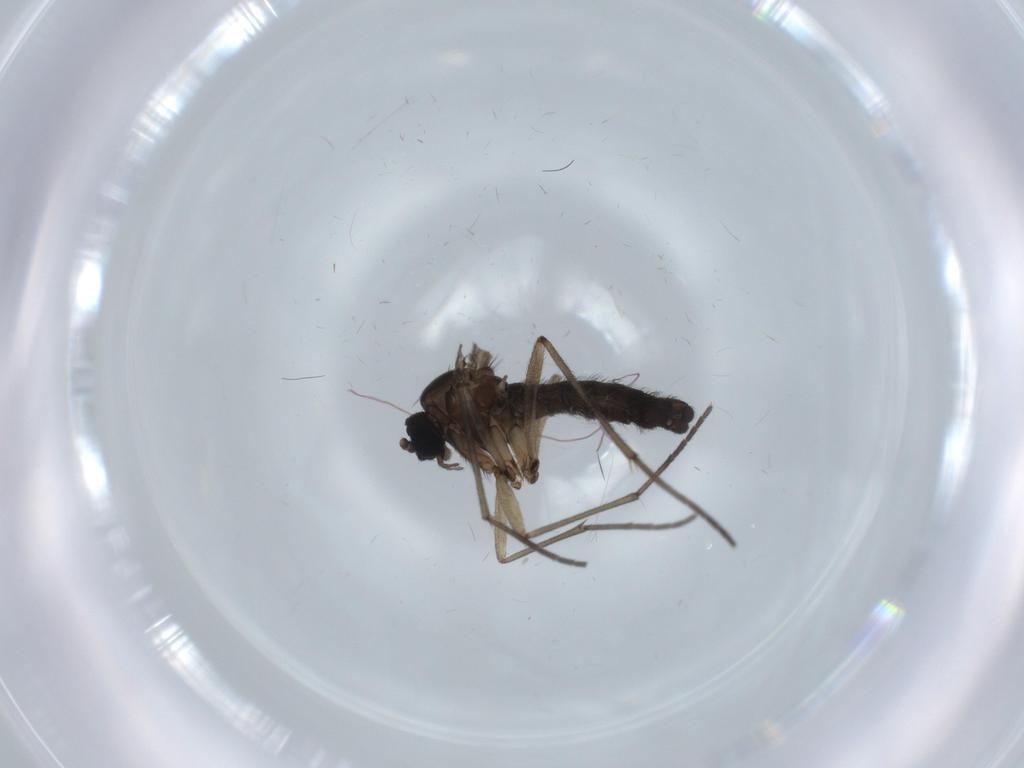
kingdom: Animalia
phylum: Arthropoda
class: Insecta
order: Diptera
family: Sciaridae
